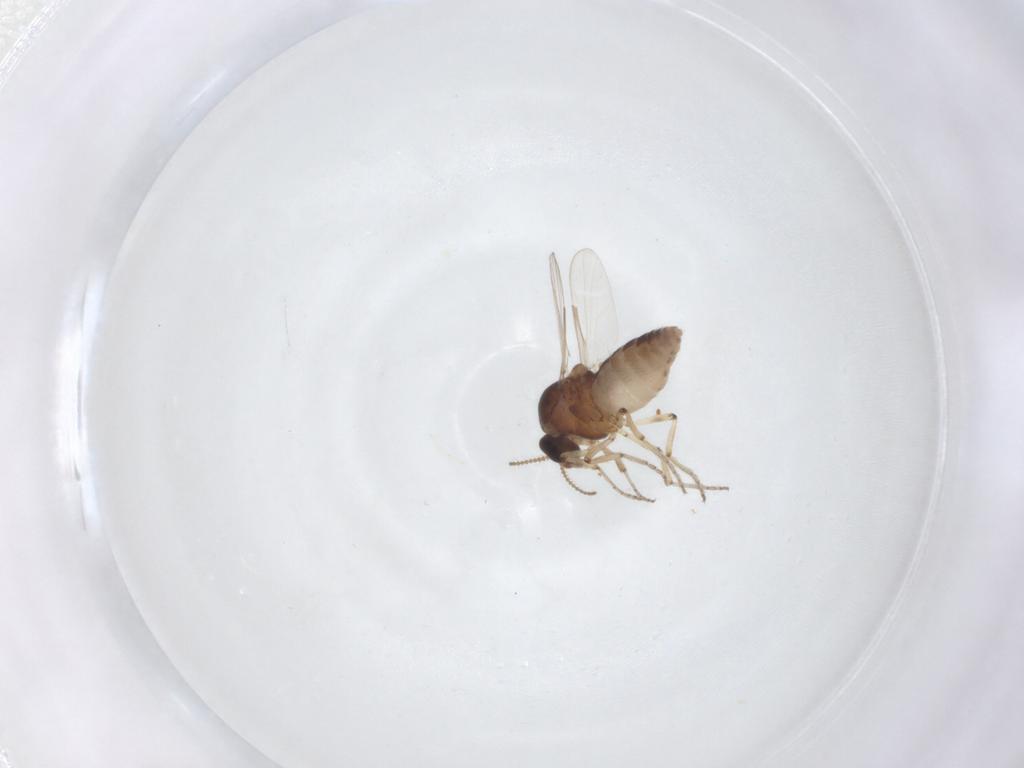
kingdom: Animalia
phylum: Arthropoda
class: Insecta
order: Diptera
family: Ceratopogonidae
